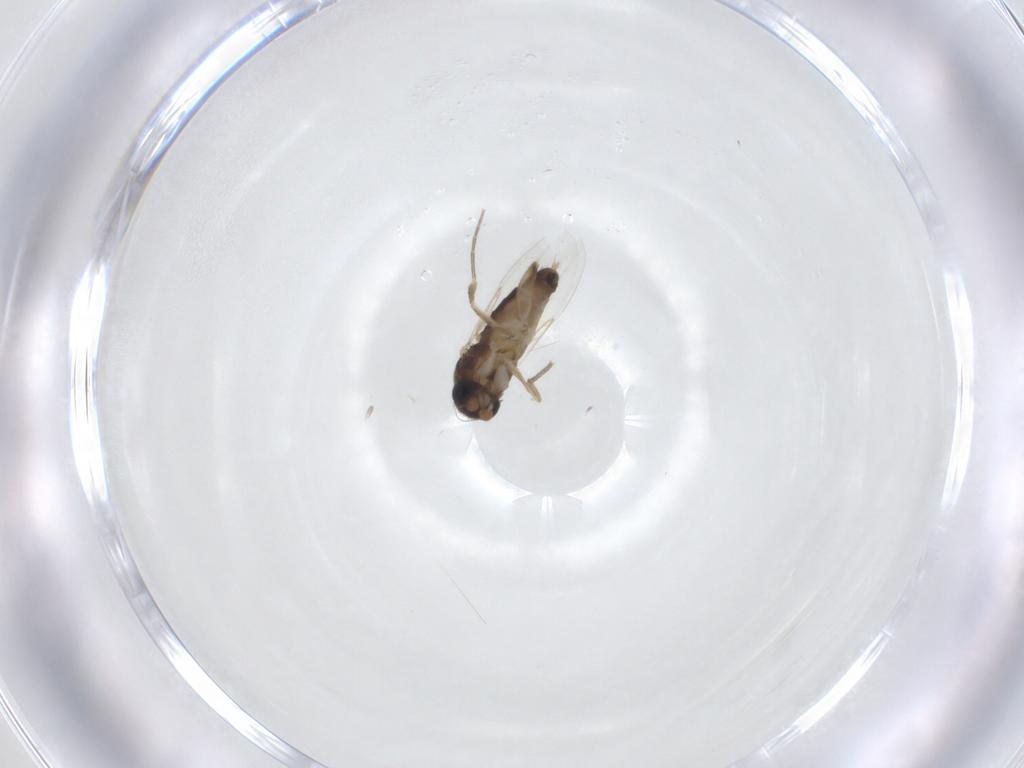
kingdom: Animalia
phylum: Arthropoda
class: Insecta
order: Diptera
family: Phoridae
